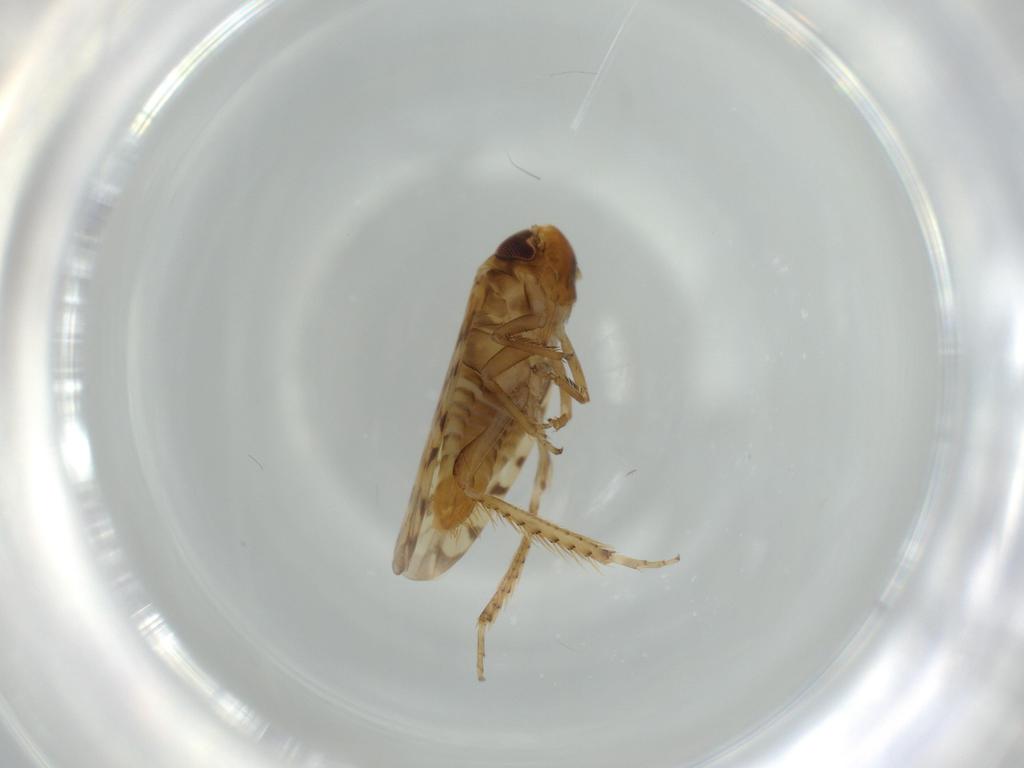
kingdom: Animalia
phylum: Arthropoda
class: Insecta
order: Hemiptera
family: Cicadellidae
